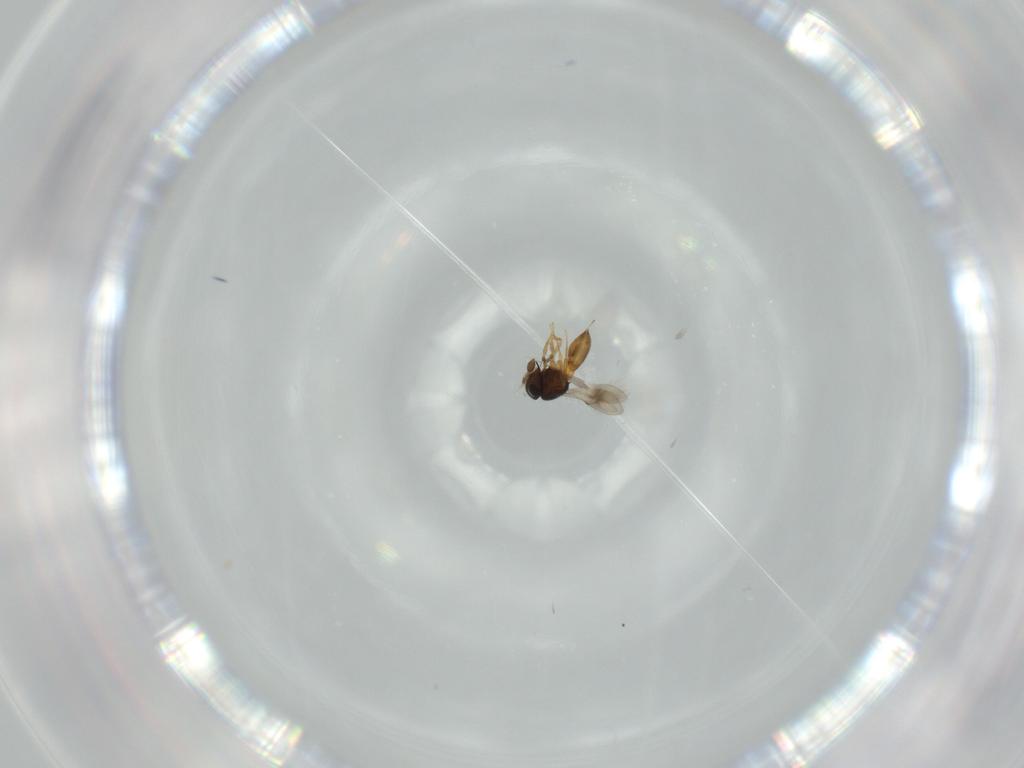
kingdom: Animalia
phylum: Arthropoda
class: Insecta
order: Hymenoptera
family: Scelionidae
